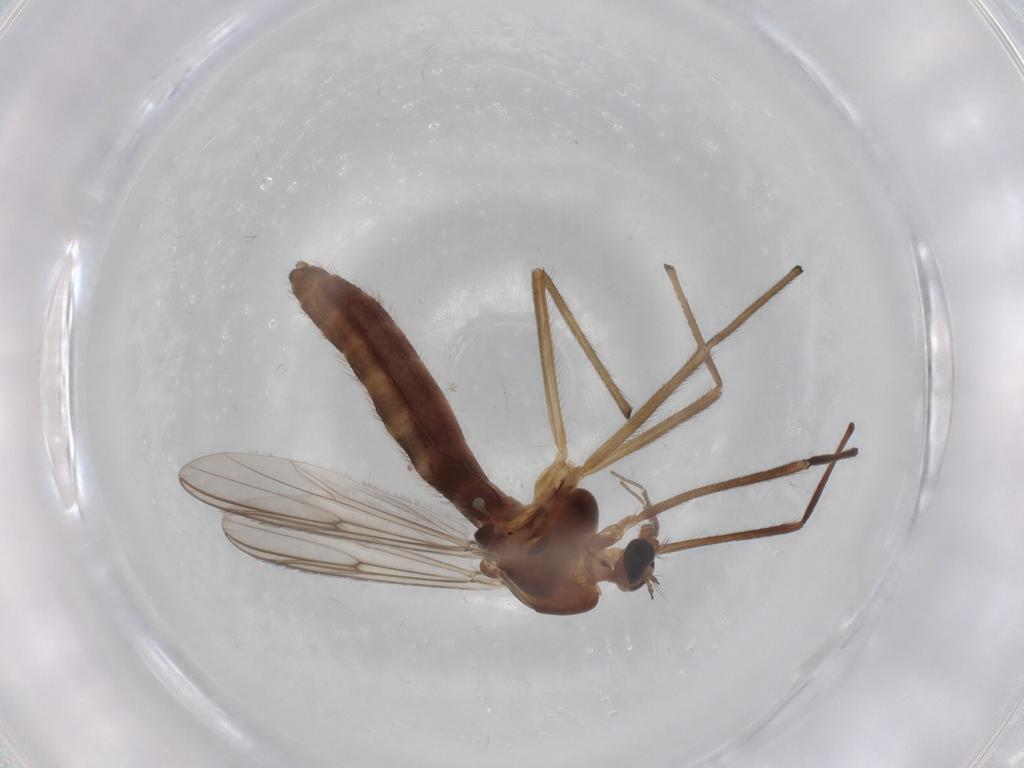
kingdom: Animalia
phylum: Arthropoda
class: Insecta
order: Diptera
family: Chironomidae
